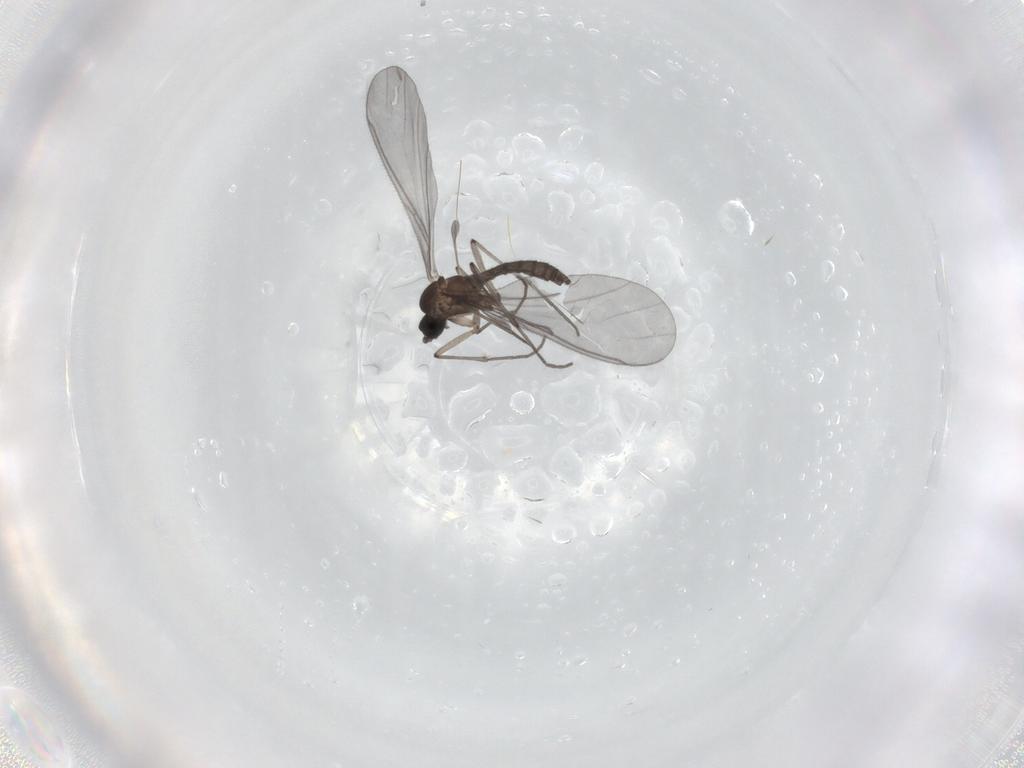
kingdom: Animalia
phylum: Arthropoda
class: Insecta
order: Diptera
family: Sciaridae
